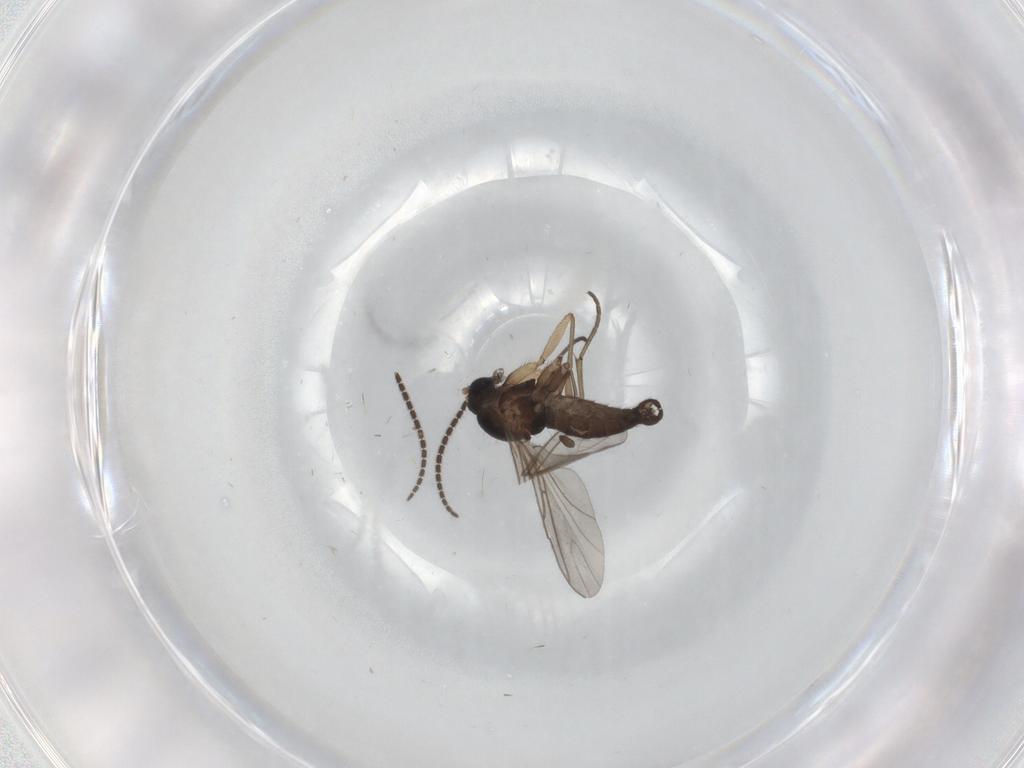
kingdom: Animalia
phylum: Arthropoda
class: Insecta
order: Diptera
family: Sciaridae
